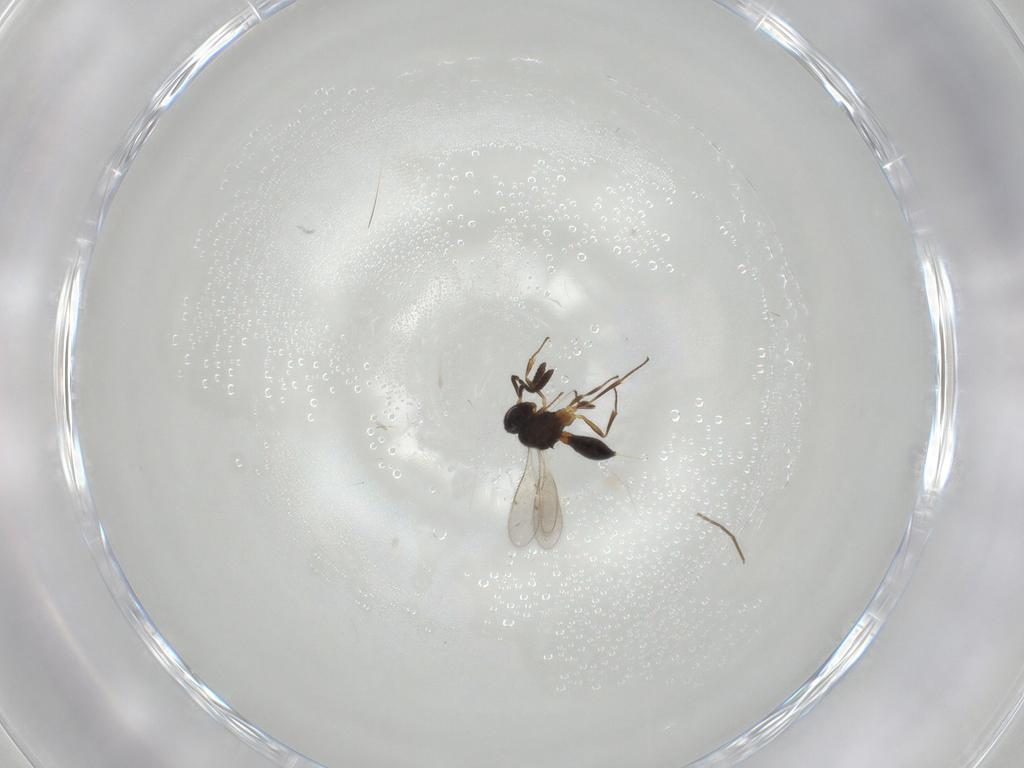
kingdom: Animalia
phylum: Arthropoda
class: Insecta
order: Hymenoptera
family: Scelionidae
